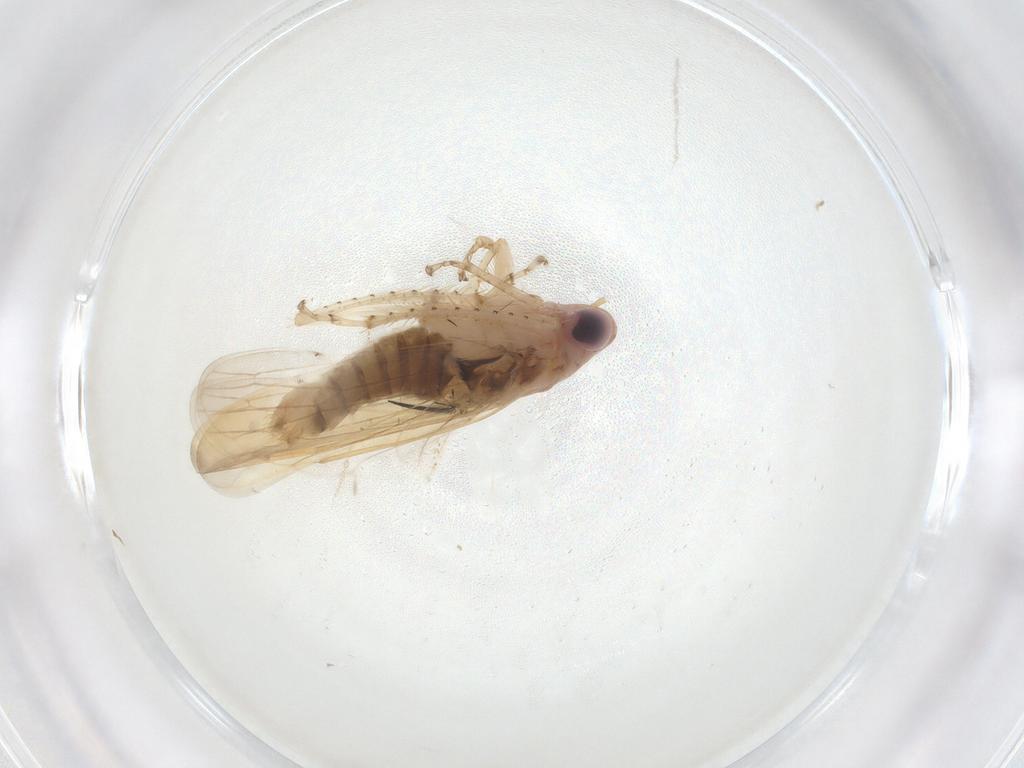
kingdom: Animalia
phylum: Arthropoda
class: Insecta
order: Hemiptera
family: Cicadellidae
